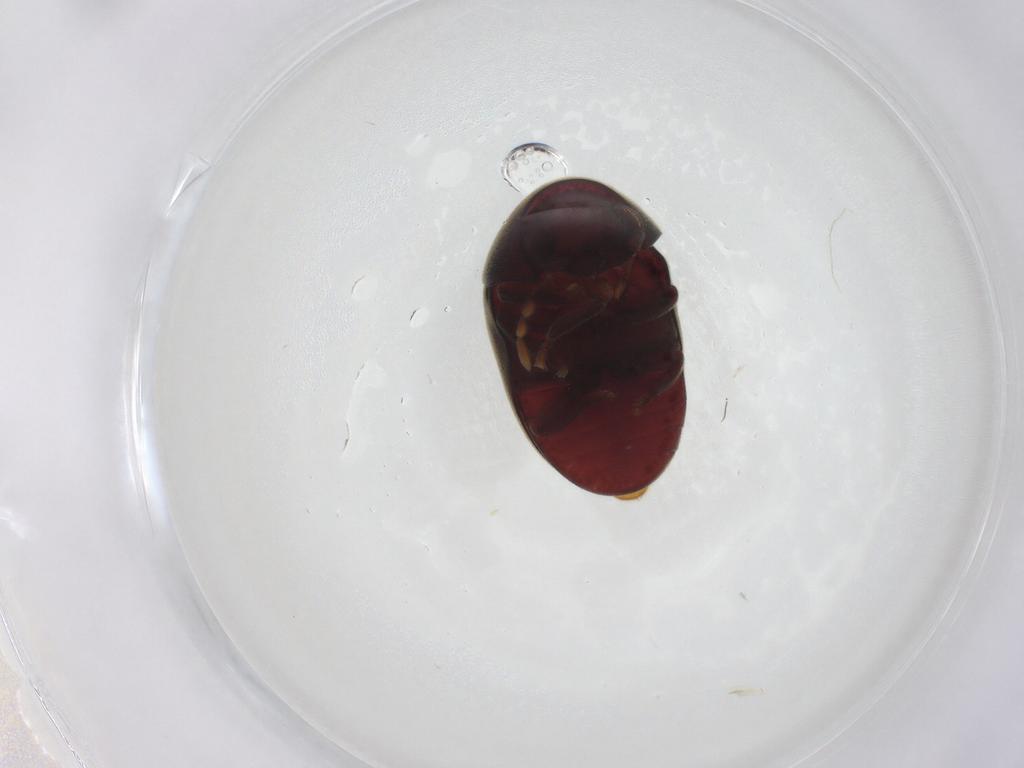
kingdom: Animalia
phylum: Arthropoda
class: Insecta
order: Coleoptera
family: Ptinidae
